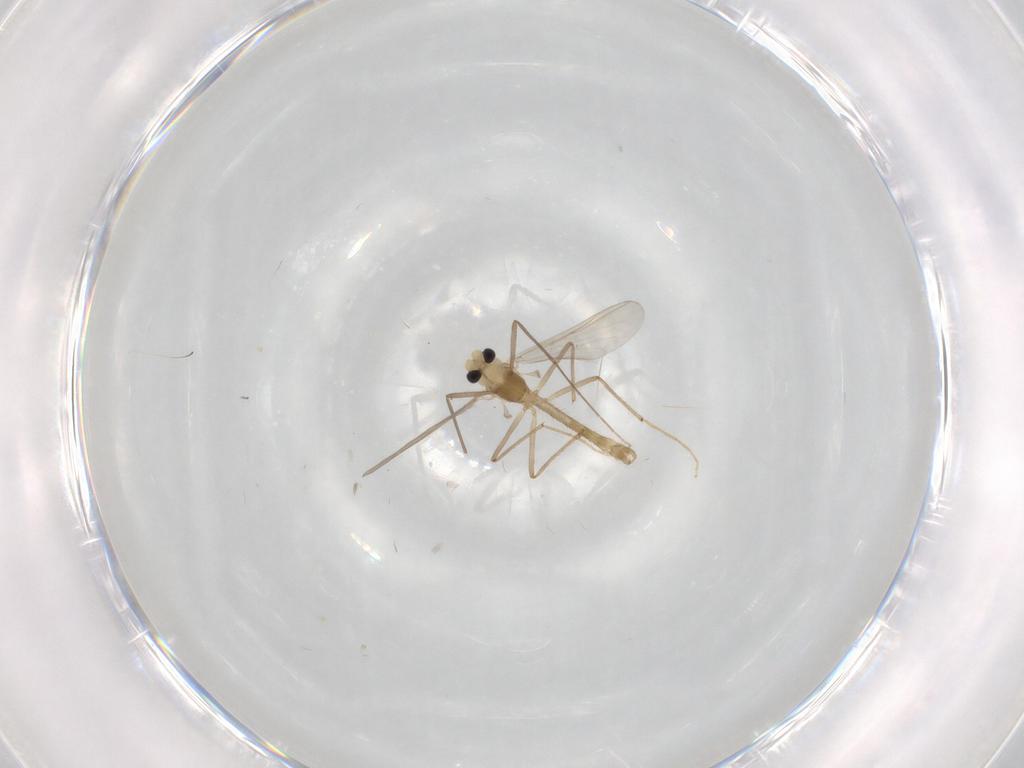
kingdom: Animalia
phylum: Arthropoda
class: Insecta
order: Diptera
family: Chironomidae
